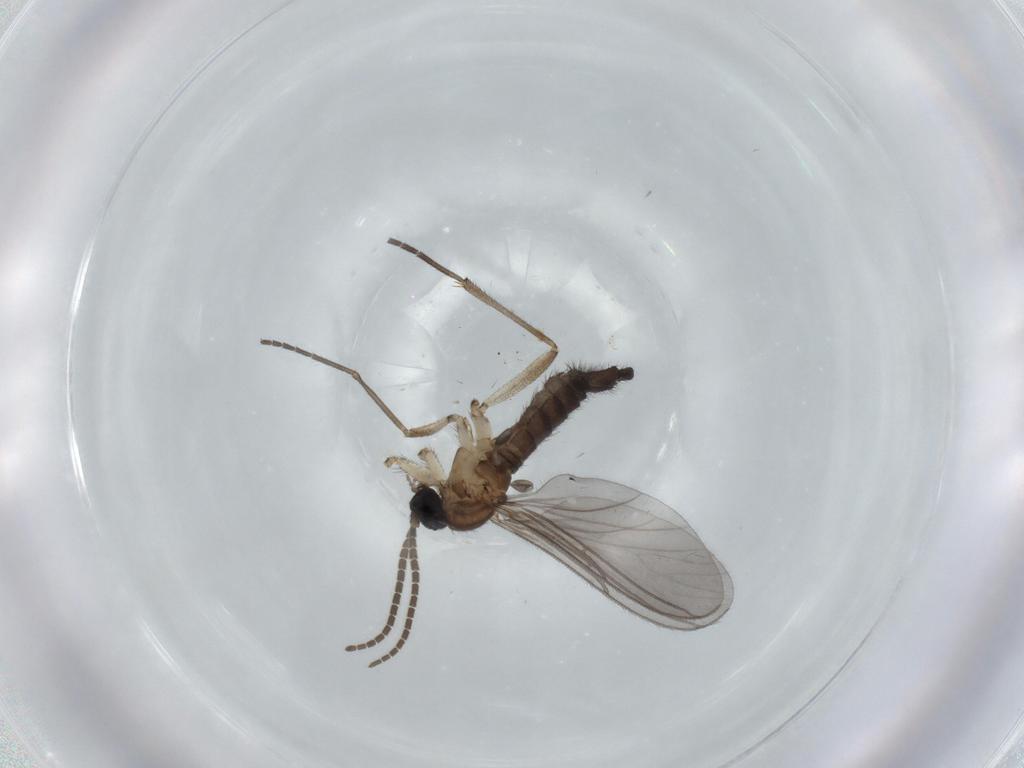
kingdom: Animalia
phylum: Arthropoda
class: Insecta
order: Diptera
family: Sciaridae
